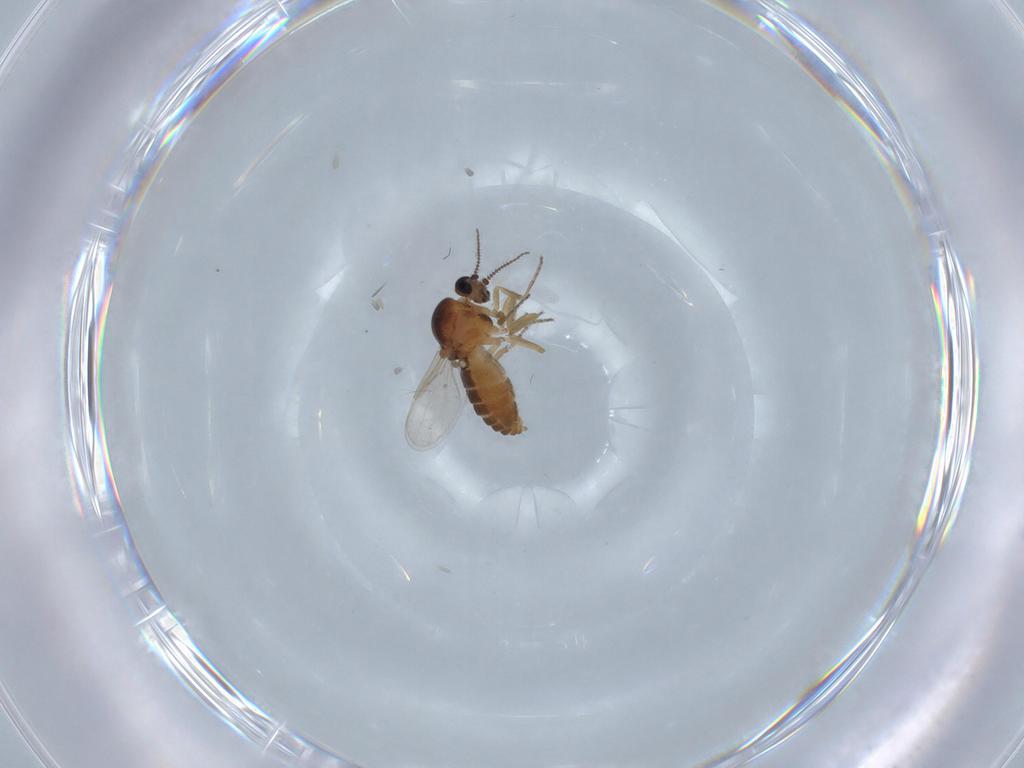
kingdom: Animalia
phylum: Arthropoda
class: Insecta
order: Diptera
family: Ceratopogonidae
